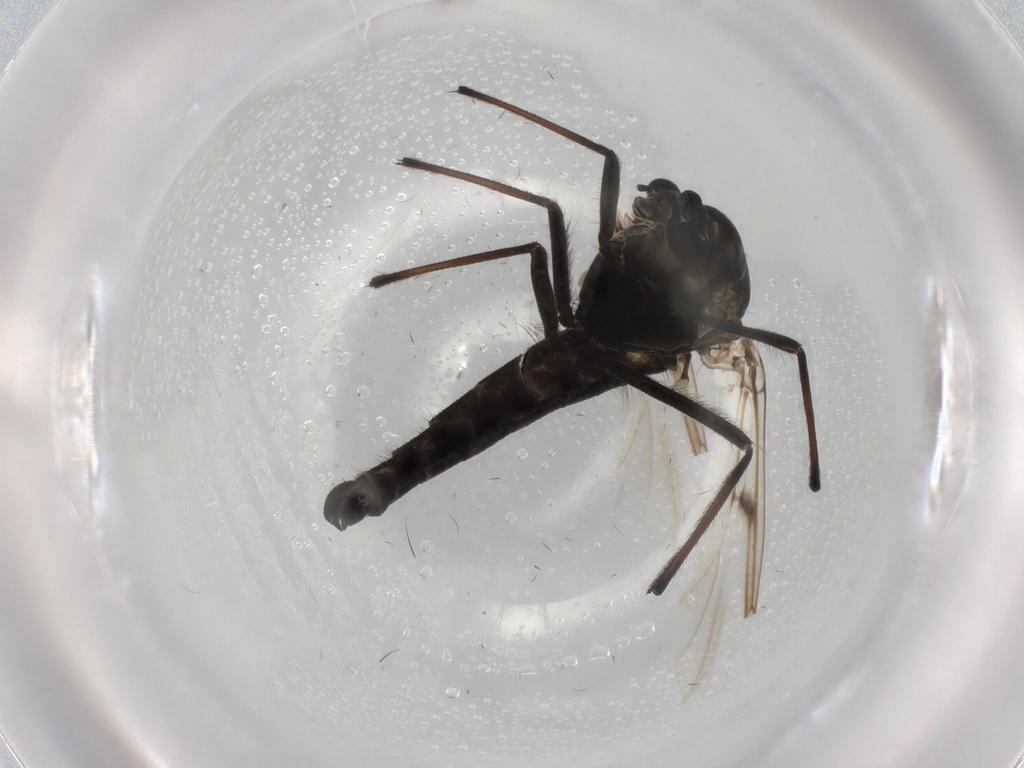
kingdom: Animalia
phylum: Arthropoda
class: Insecta
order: Diptera
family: Chironomidae
